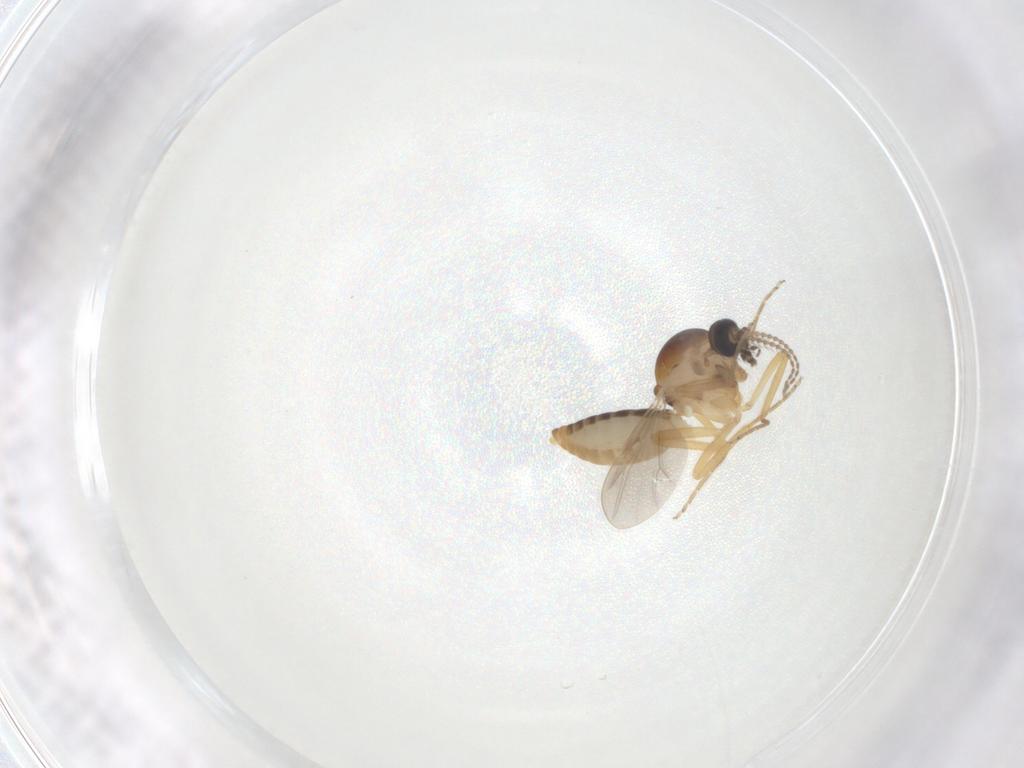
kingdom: Animalia
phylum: Arthropoda
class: Insecta
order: Diptera
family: Ceratopogonidae
